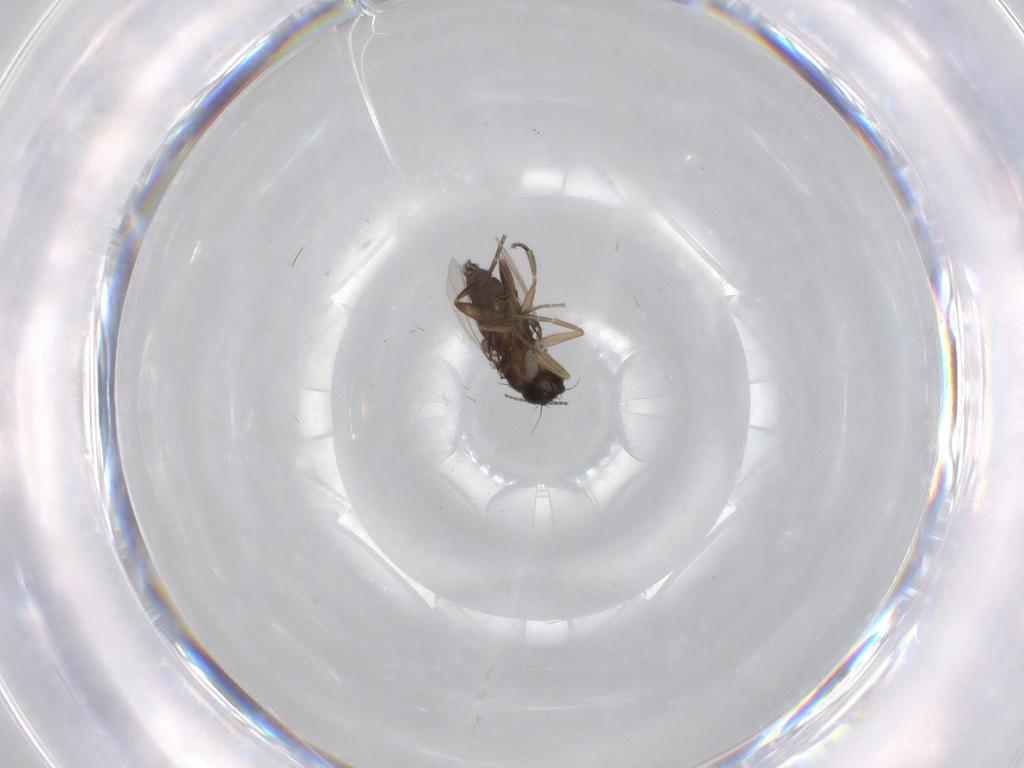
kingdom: Animalia
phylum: Arthropoda
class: Insecta
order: Diptera
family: Phoridae
